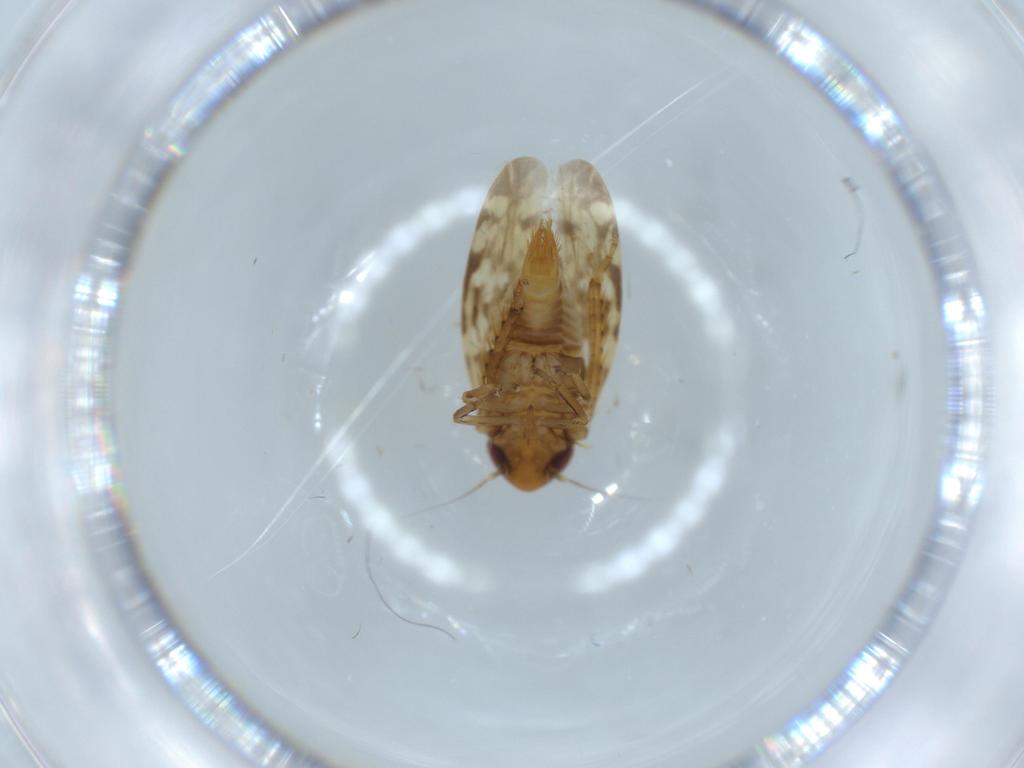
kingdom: Animalia
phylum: Arthropoda
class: Insecta
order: Hemiptera
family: Cicadellidae
